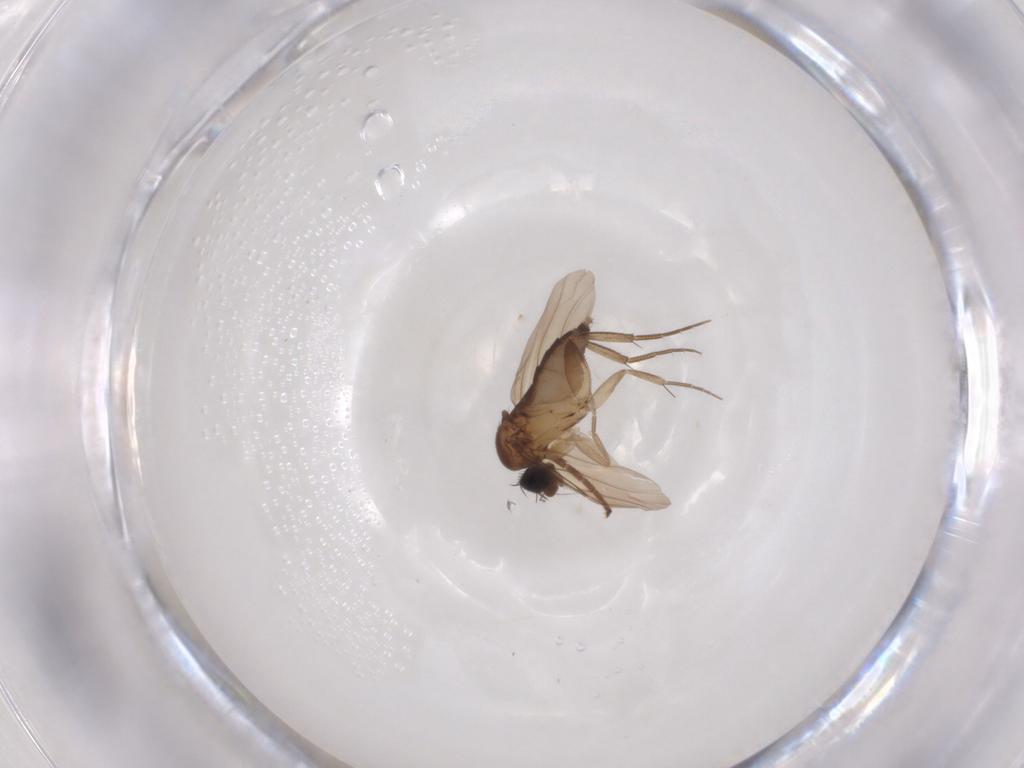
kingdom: Animalia
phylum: Arthropoda
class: Insecta
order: Diptera
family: Phoridae
